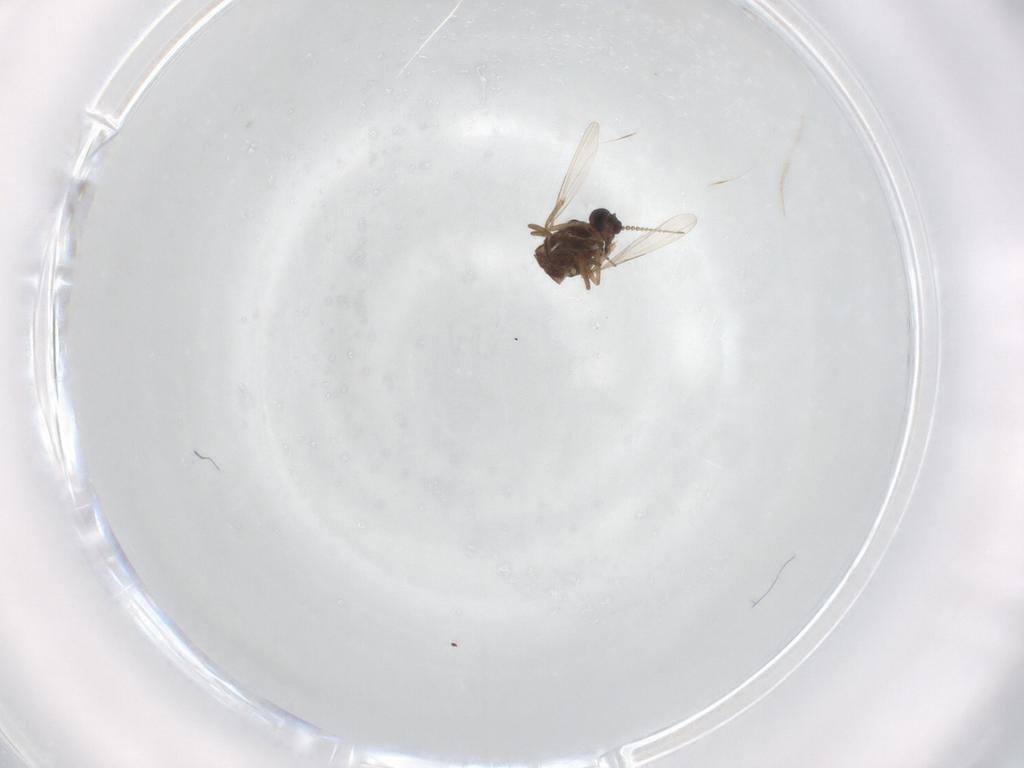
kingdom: Animalia
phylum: Arthropoda
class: Insecta
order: Diptera
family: Ceratopogonidae
